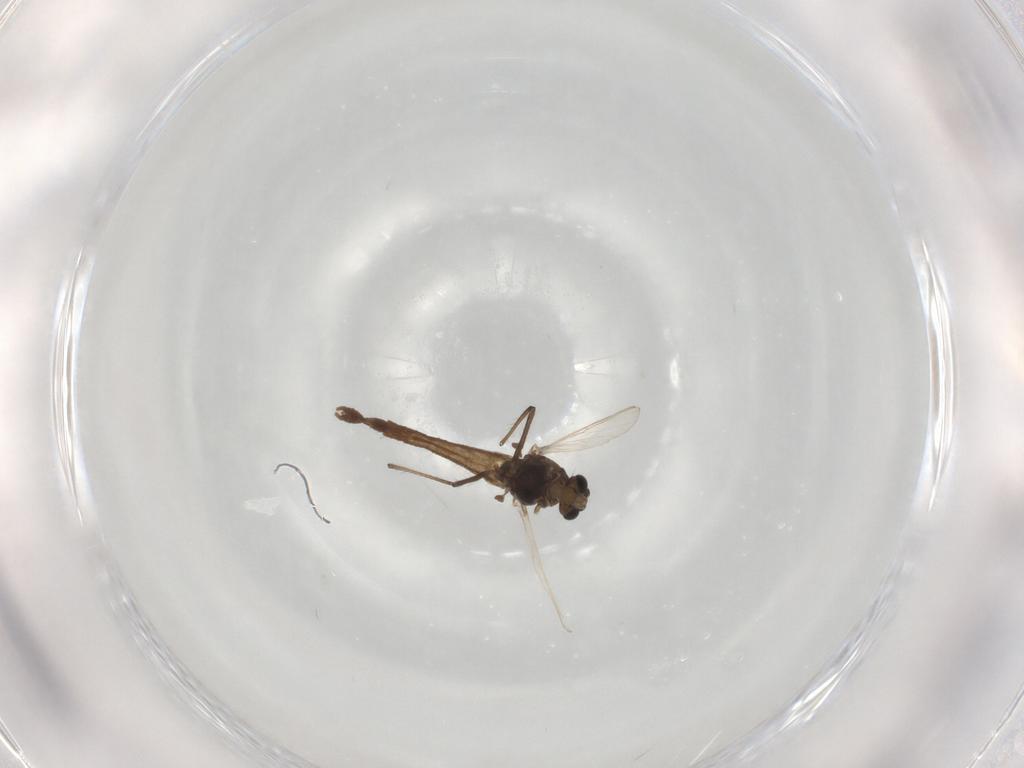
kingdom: Animalia
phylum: Arthropoda
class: Insecta
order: Diptera
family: Chironomidae
